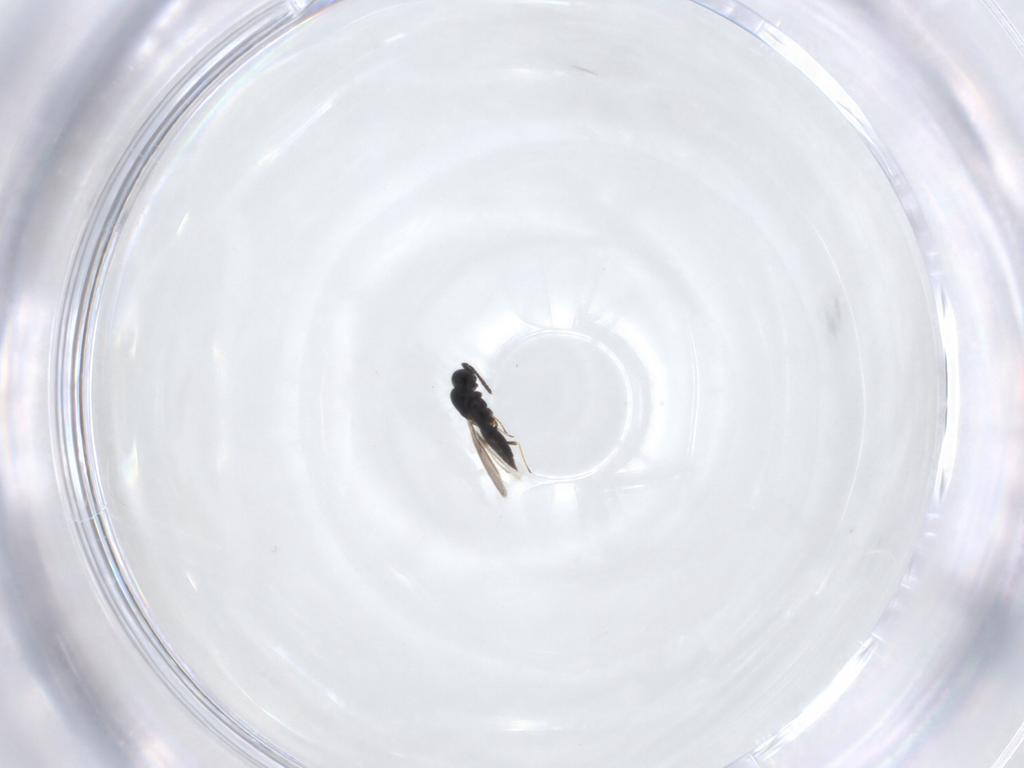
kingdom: Animalia
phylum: Arthropoda
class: Insecta
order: Hymenoptera
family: Scelionidae
